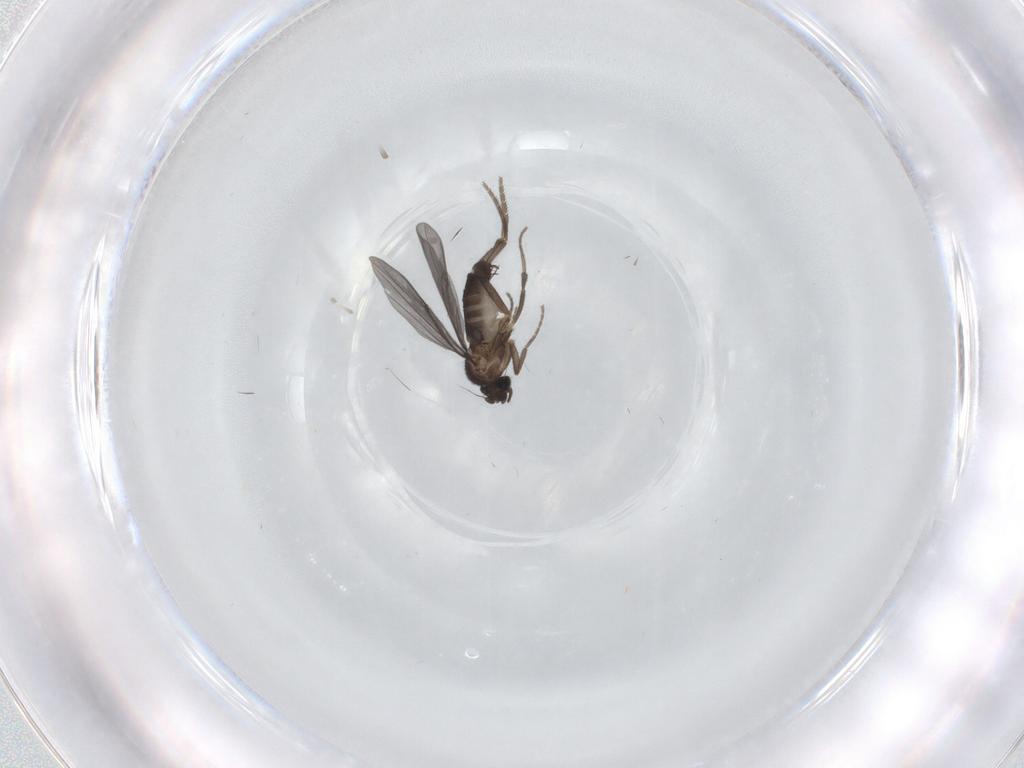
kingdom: Animalia
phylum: Arthropoda
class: Insecta
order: Diptera
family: Phoridae
